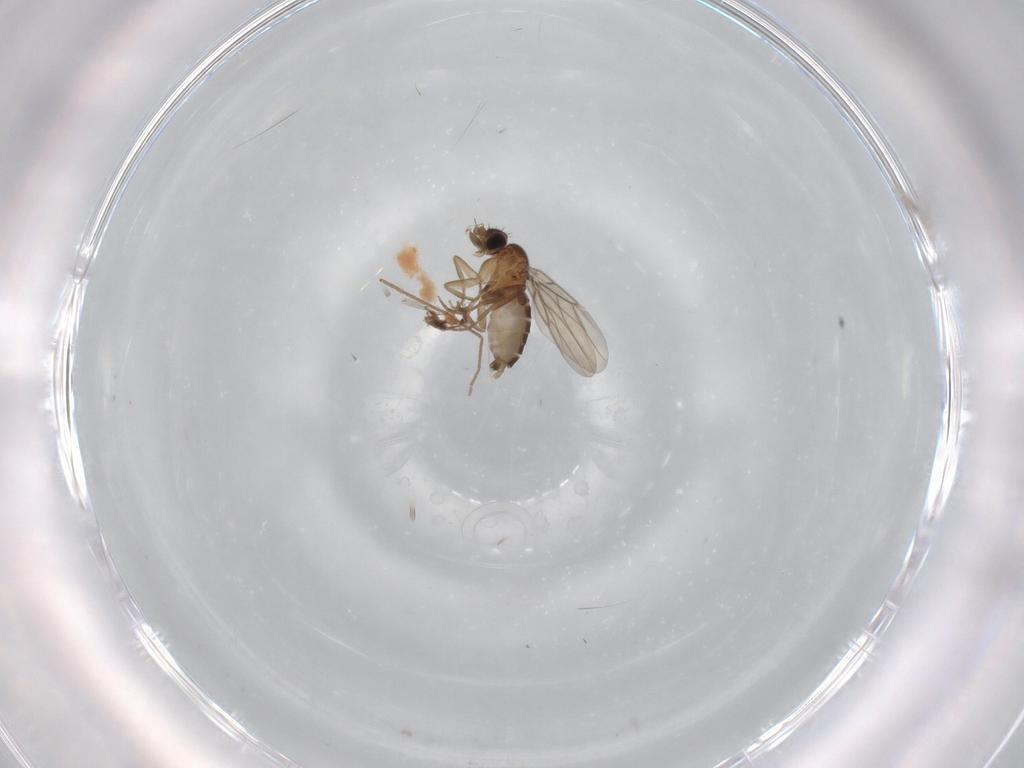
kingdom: Animalia
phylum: Arthropoda
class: Insecta
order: Diptera
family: Phoridae
